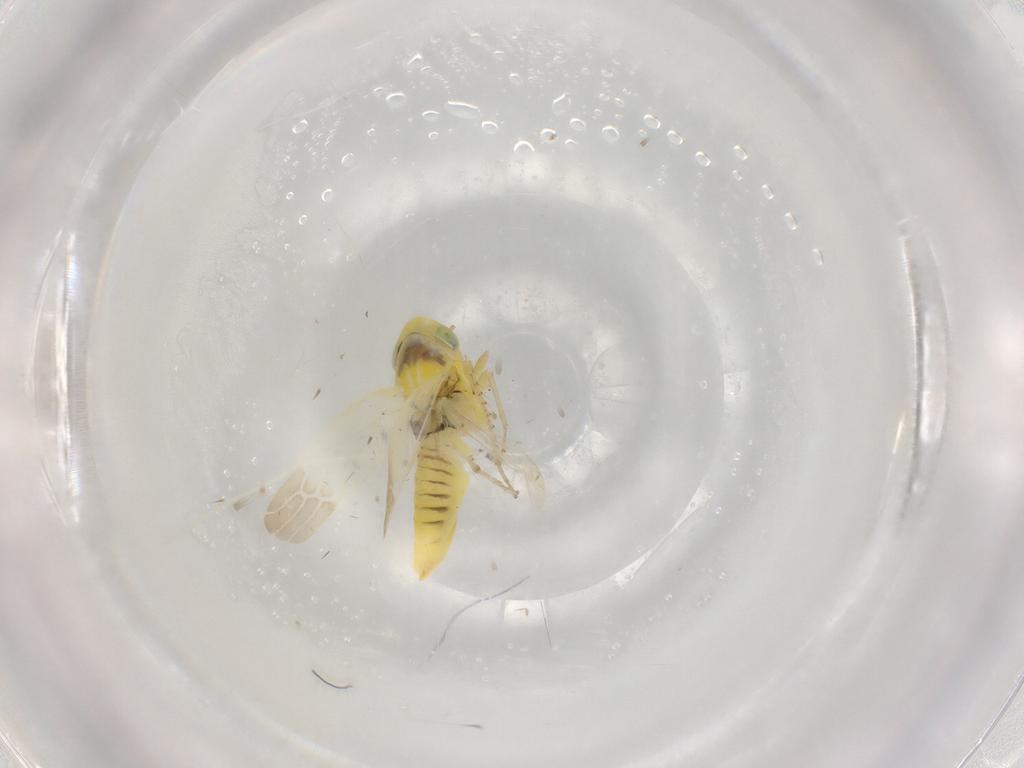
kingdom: Animalia
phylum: Arthropoda
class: Insecta
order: Hemiptera
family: Cicadellidae
